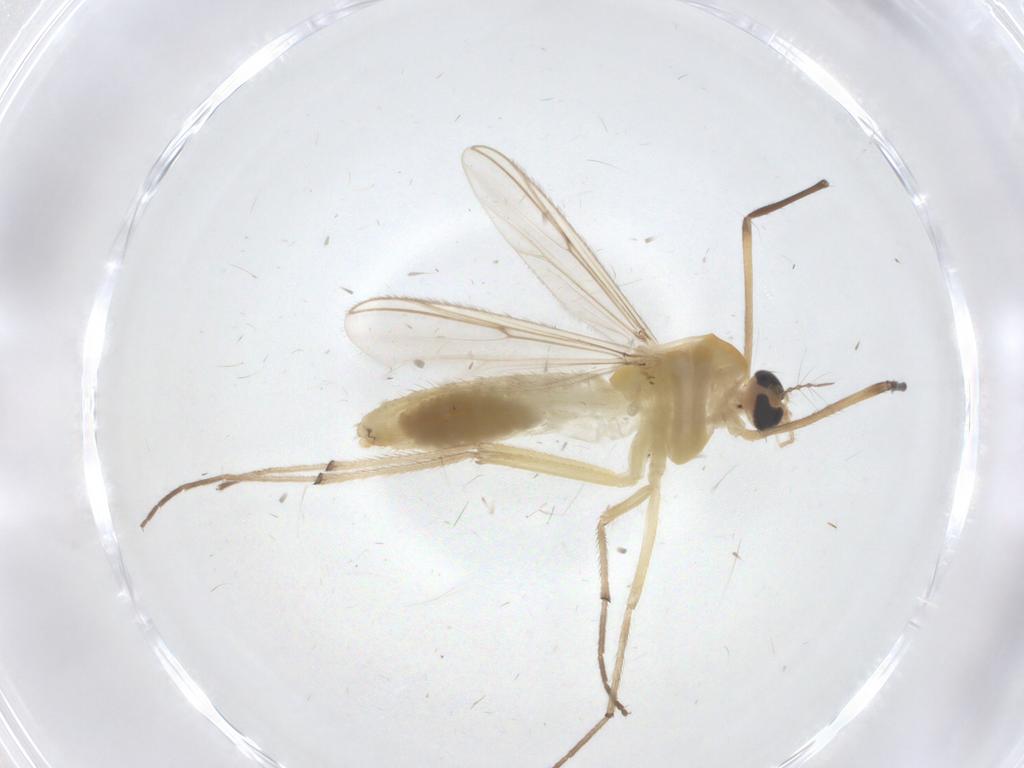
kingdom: Animalia
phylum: Arthropoda
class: Insecta
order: Diptera
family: Chironomidae
